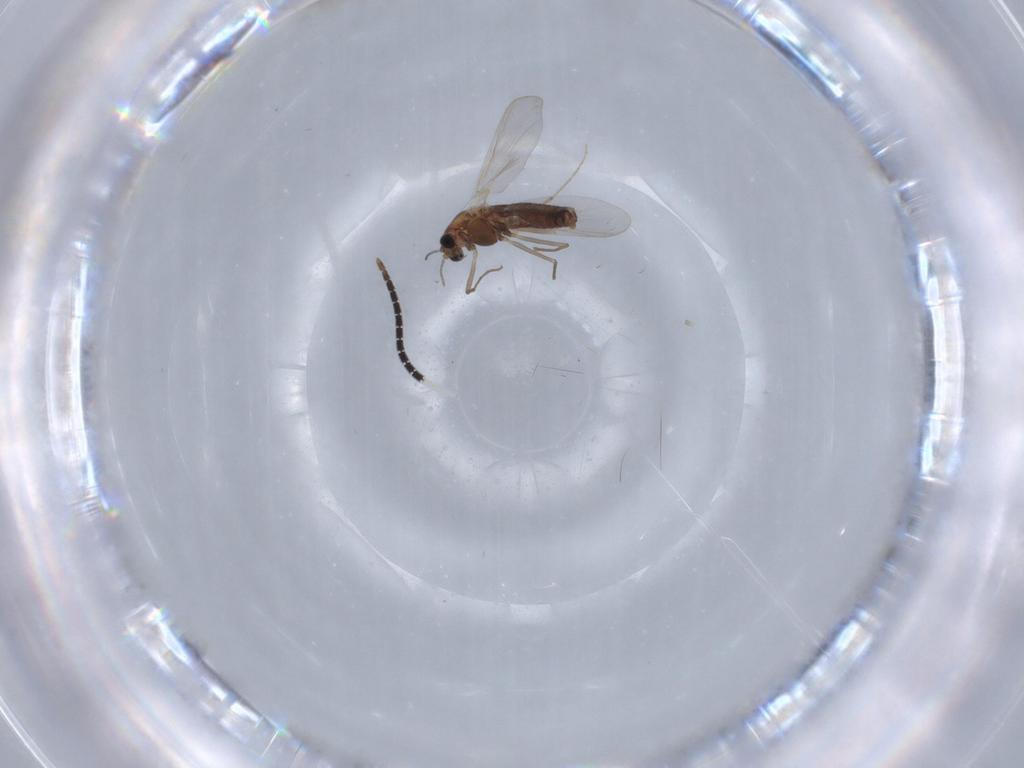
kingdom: Animalia
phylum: Arthropoda
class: Insecta
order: Diptera
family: Chironomidae
